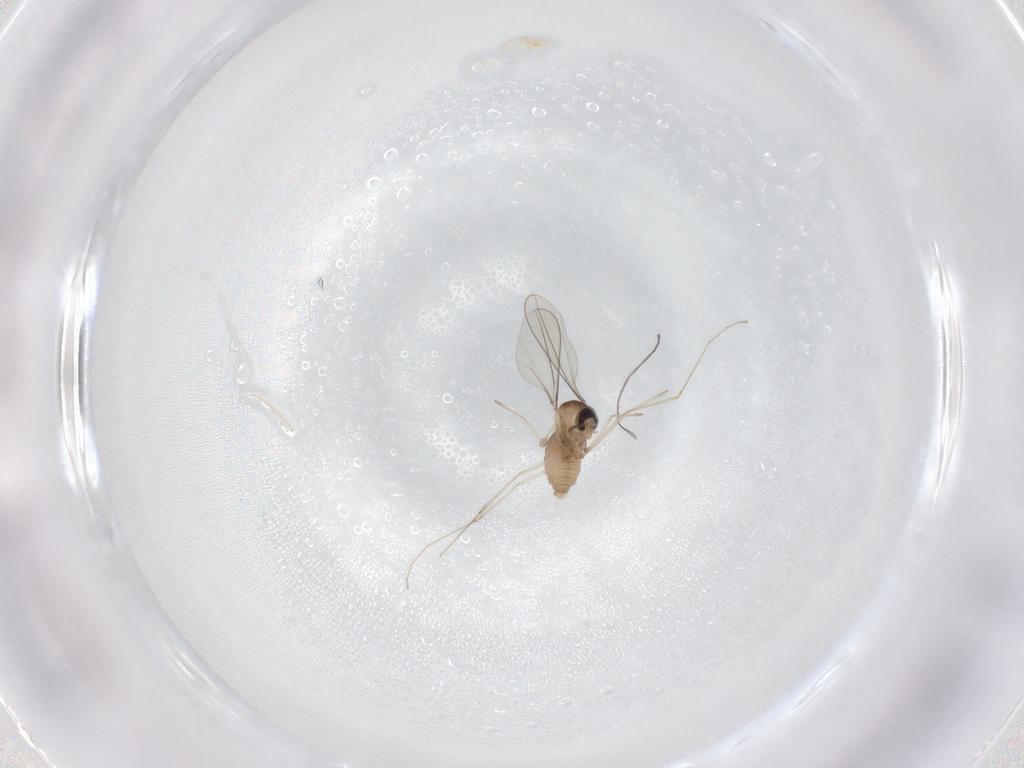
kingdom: Animalia
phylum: Arthropoda
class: Insecta
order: Diptera
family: Cecidomyiidae
